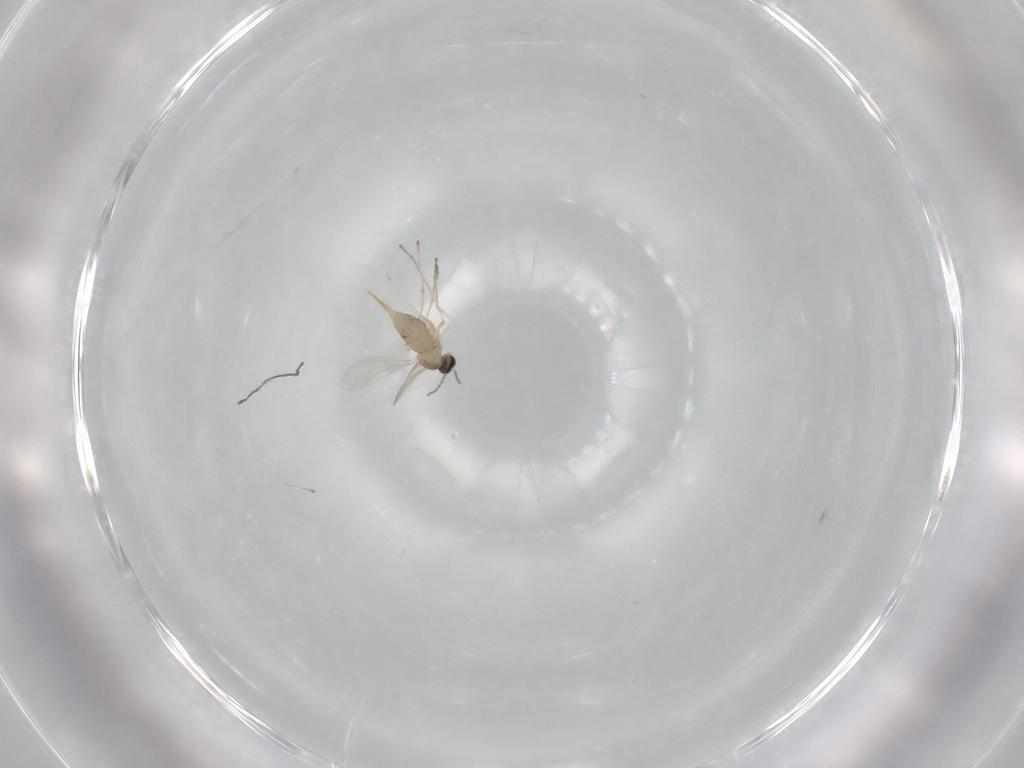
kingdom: Animalia
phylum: Arthropoda
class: Insecta
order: Diptera
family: Cecidomyiidae
